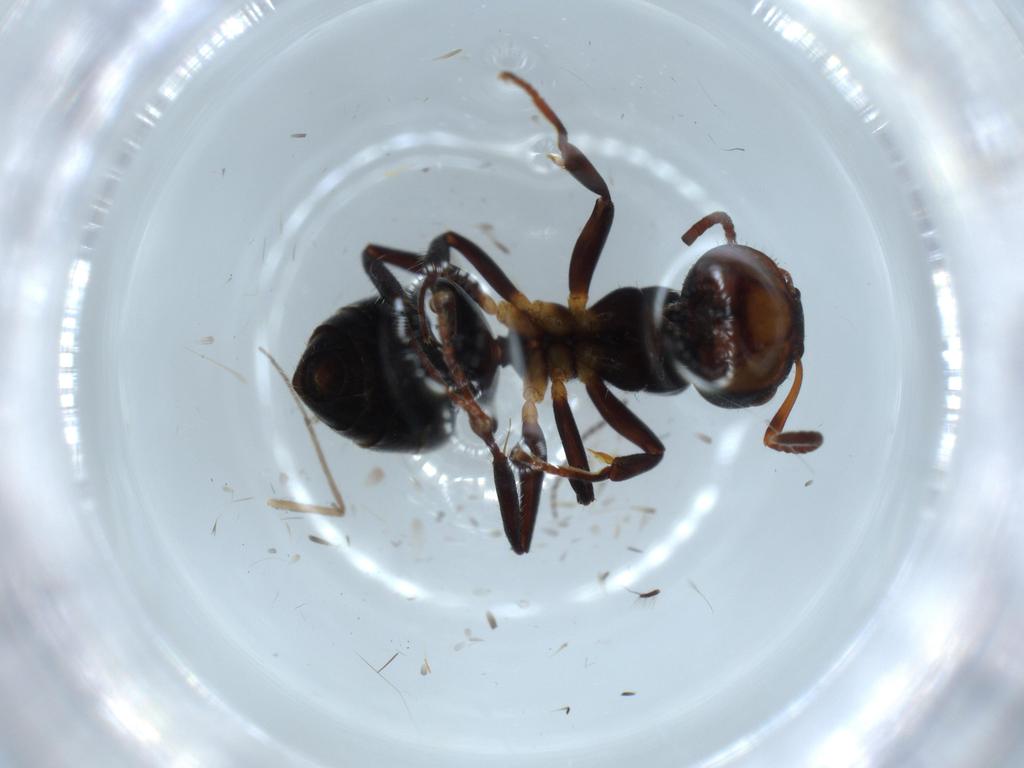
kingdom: Animalia
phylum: Arthropoda
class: Insecta
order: Hymenoptera
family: Formicidae
